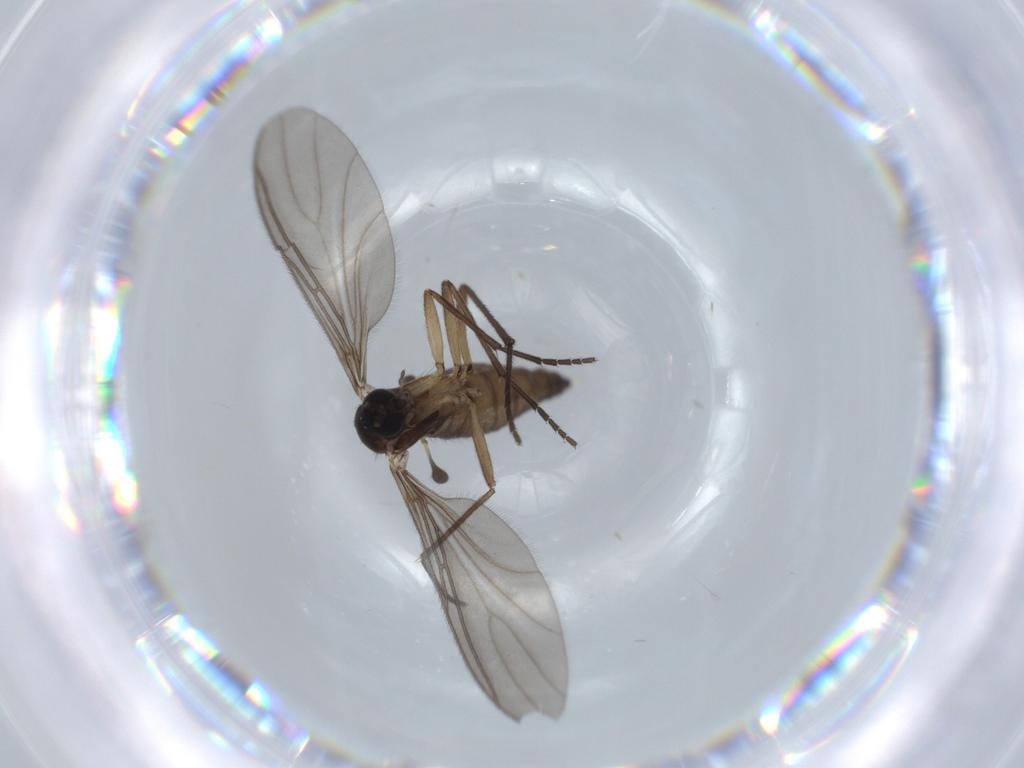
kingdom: Animalia
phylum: Arthropoda
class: Insecta
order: Diptera
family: Sciaridae
